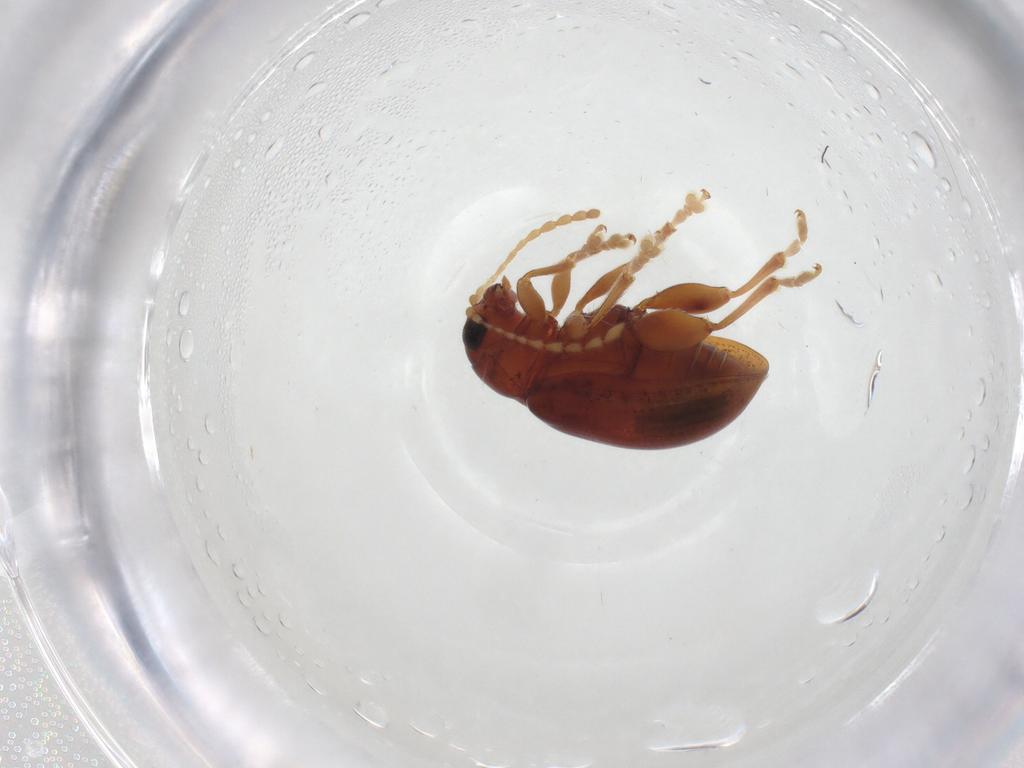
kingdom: Animalia
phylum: Arthropoda
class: Insecta
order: Coleoptera
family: Chrysomelidae
